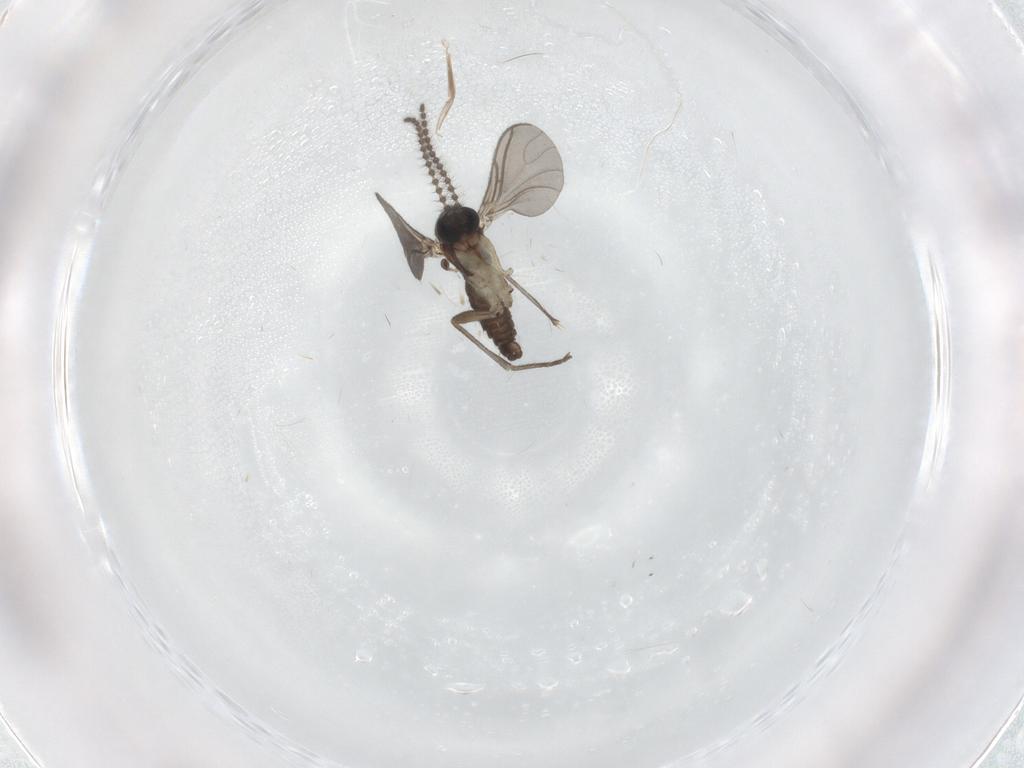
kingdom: Animalia
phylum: Arthropoda
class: Insecta
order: Diptera
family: Sciaridae
